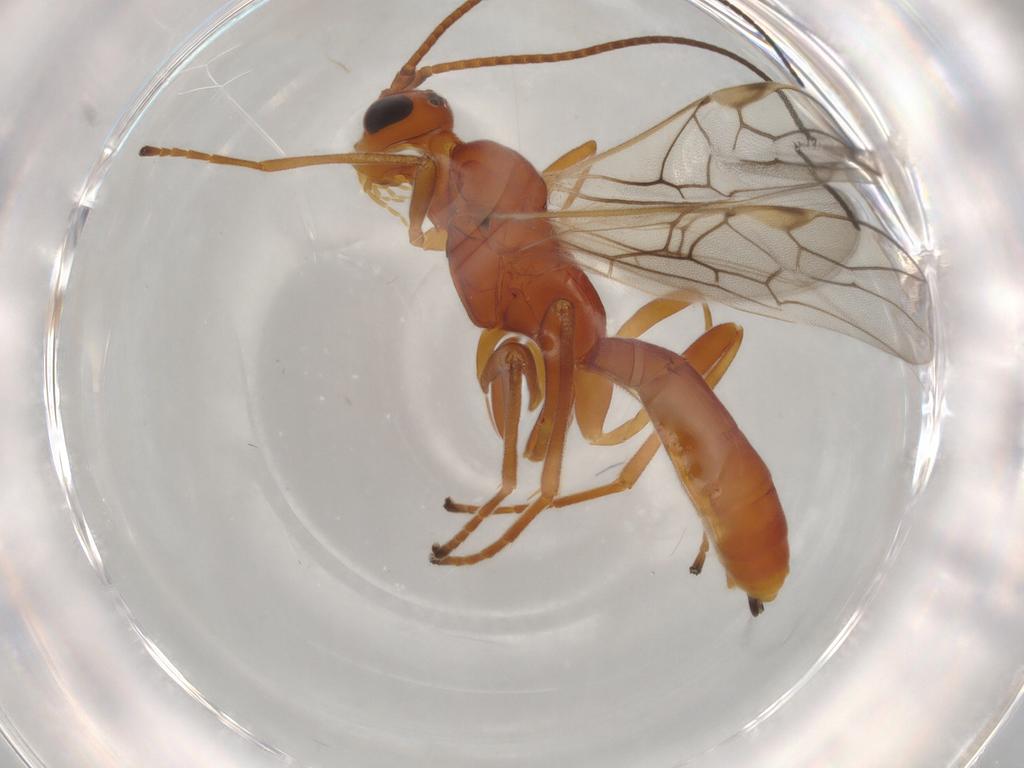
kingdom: Animalia
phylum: Arthropoda
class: Insecta
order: Hymenoptera
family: Braconidae
